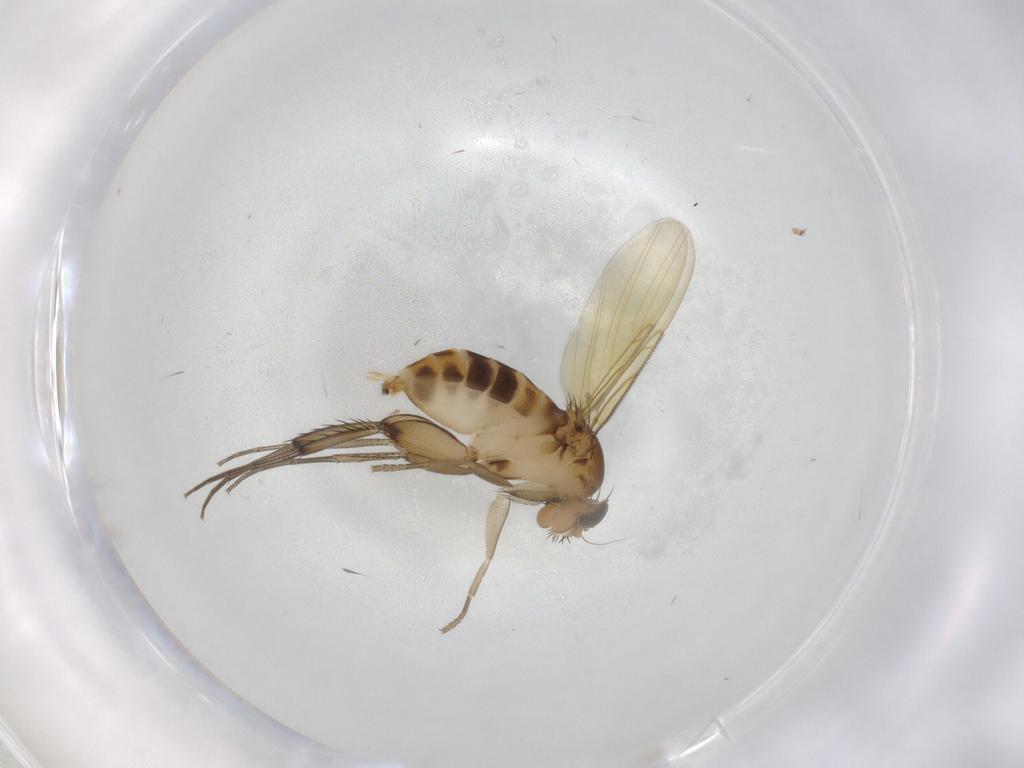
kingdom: Animalia
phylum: Arthropoda
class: Insecta
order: Diptera
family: Phoridae
